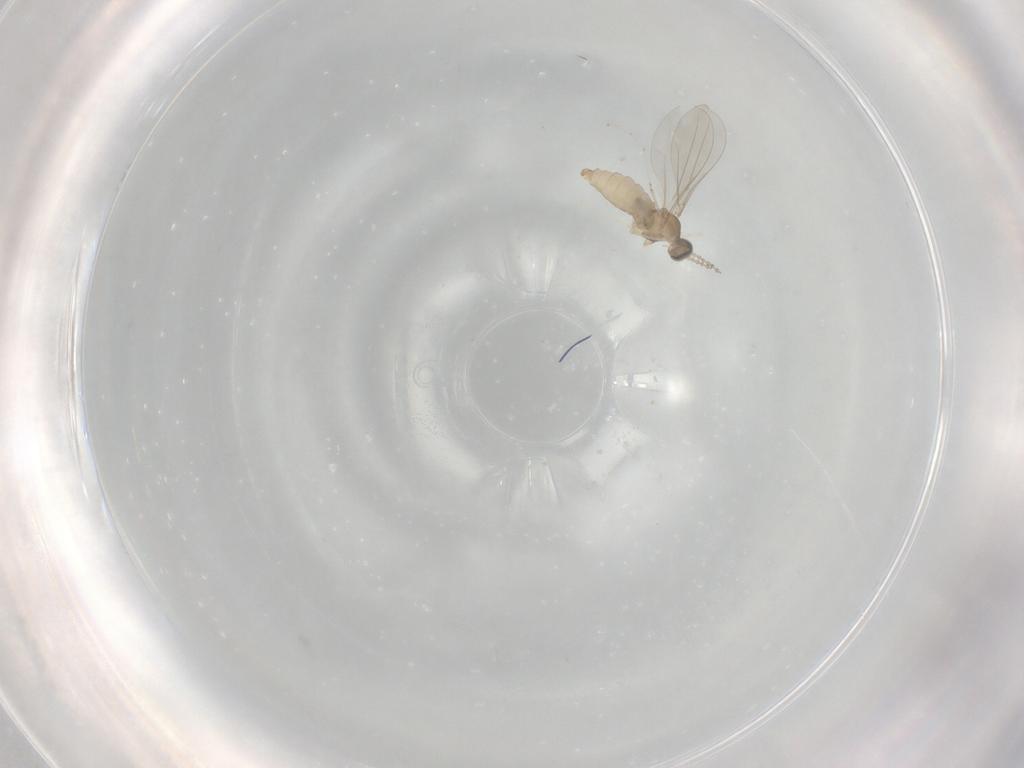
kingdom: Animalia
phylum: Arthropoda
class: Insecta
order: Diptera
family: Cecidomyiidae
